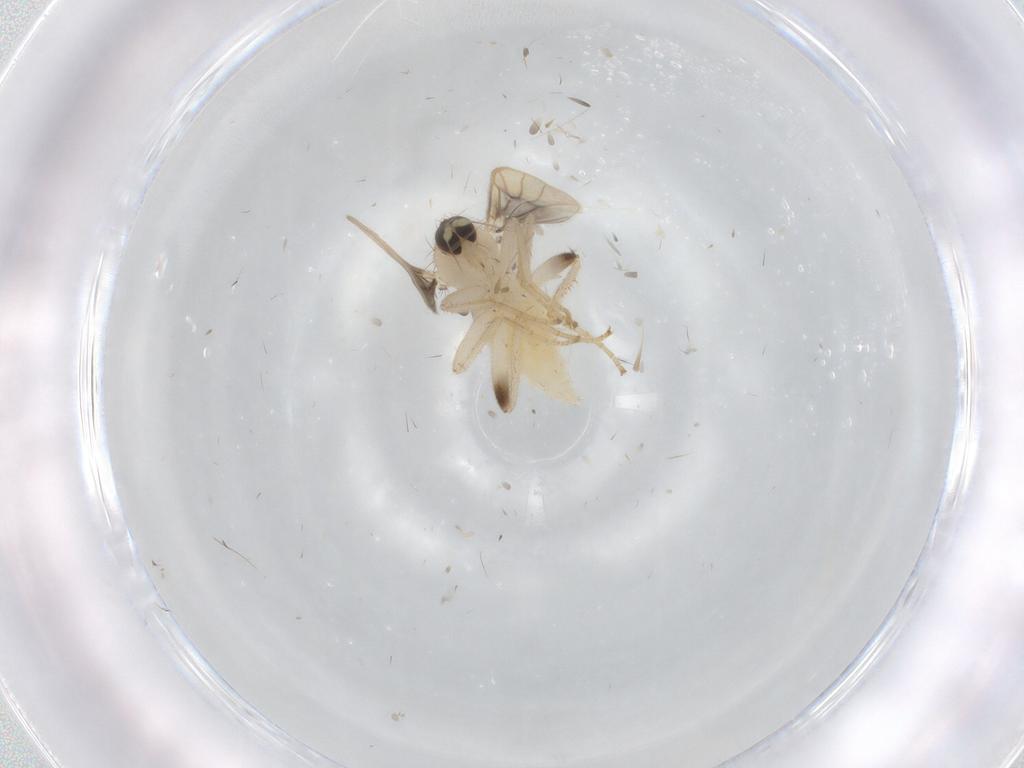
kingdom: Animalia
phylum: Arthropoda
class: Insecta
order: Diptera
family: Hybotidae
